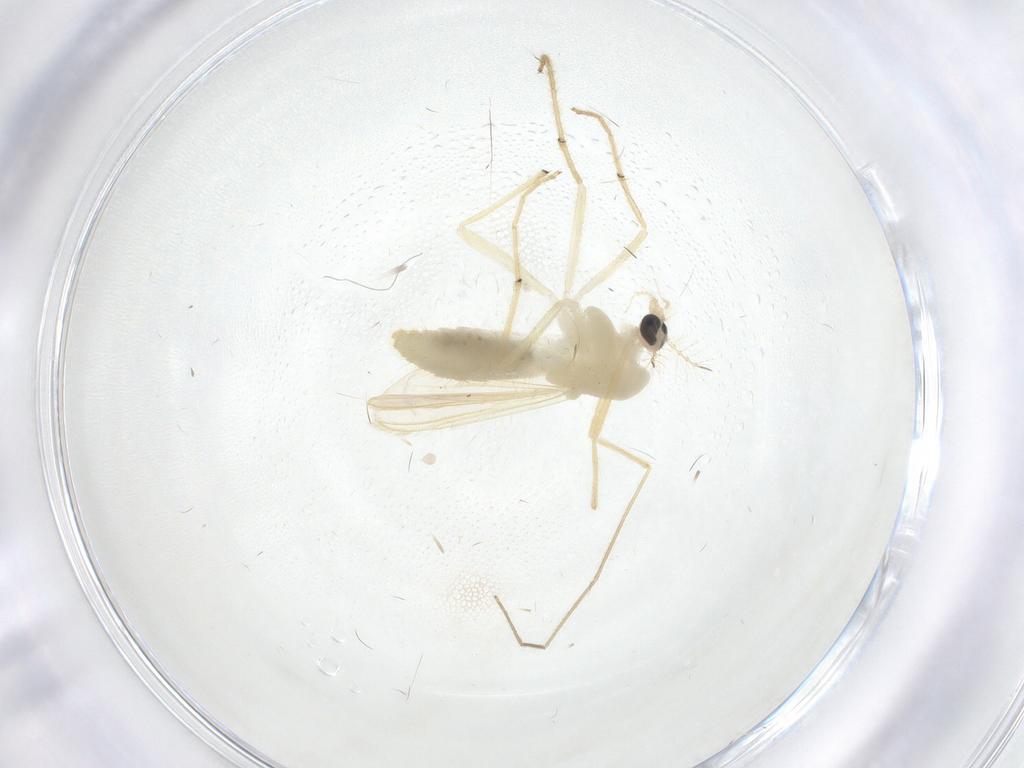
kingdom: Animalia
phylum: Arthropoda
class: Insecta
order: Diptera
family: Chironomidae
